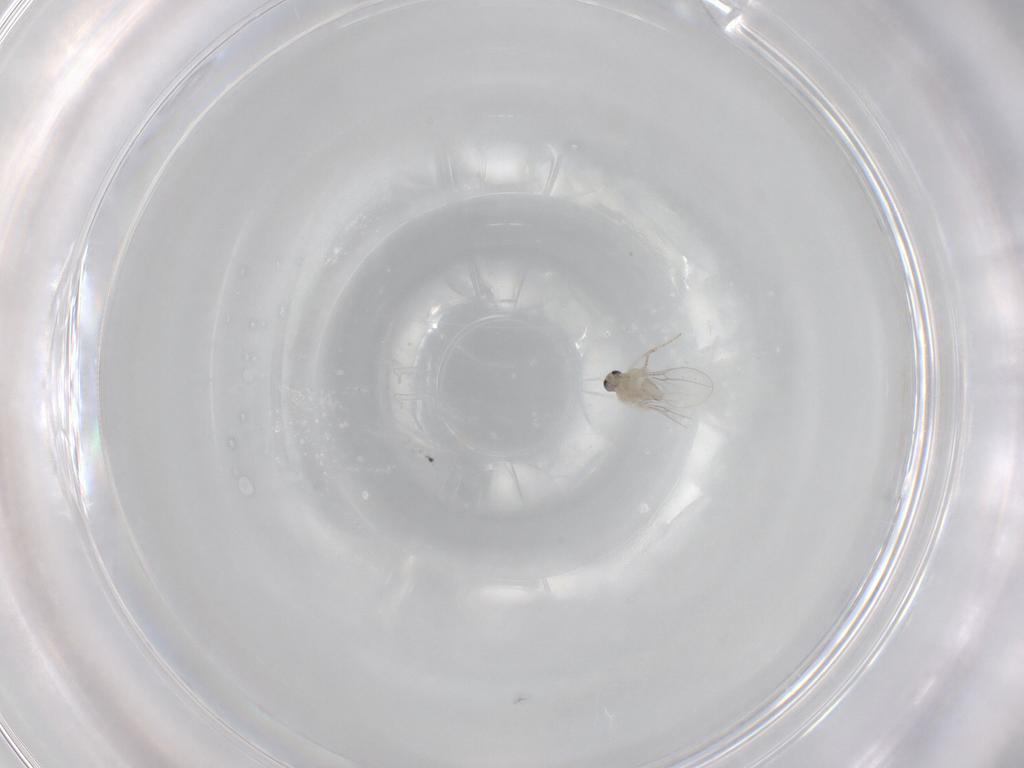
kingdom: Animalia
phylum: Arthropoda
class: Insecta
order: Diptera
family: Cecidomyiidae
